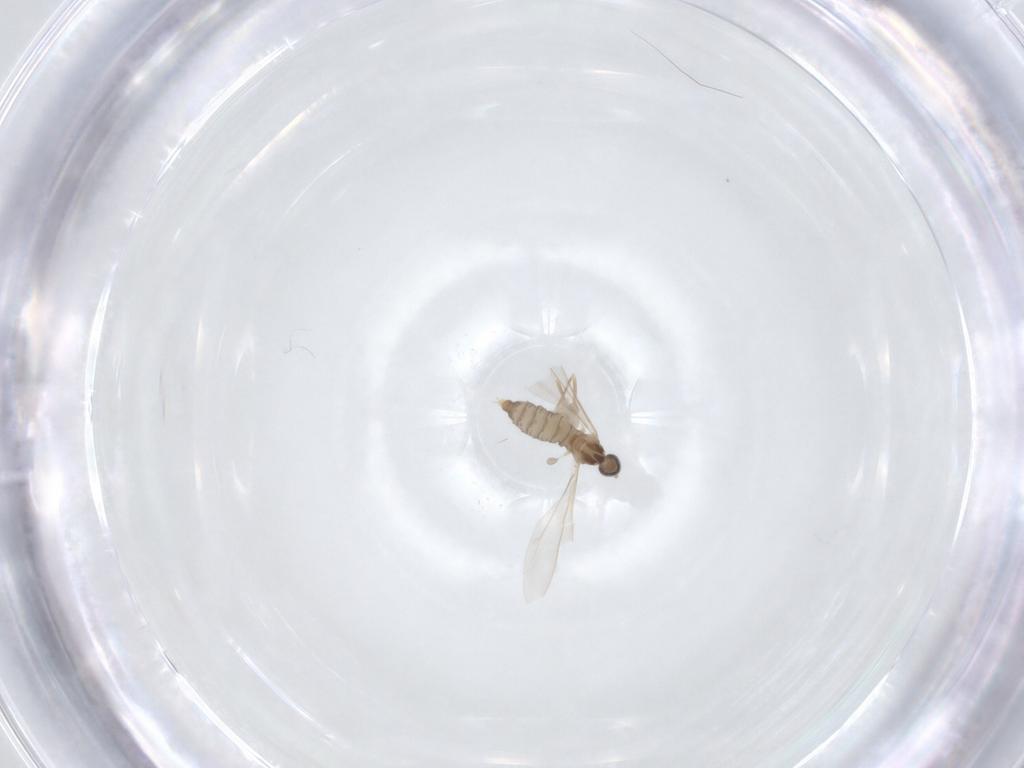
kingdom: Animalia
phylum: Arthropoda
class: Insecta
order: Diptera
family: Cecidomyiidae
